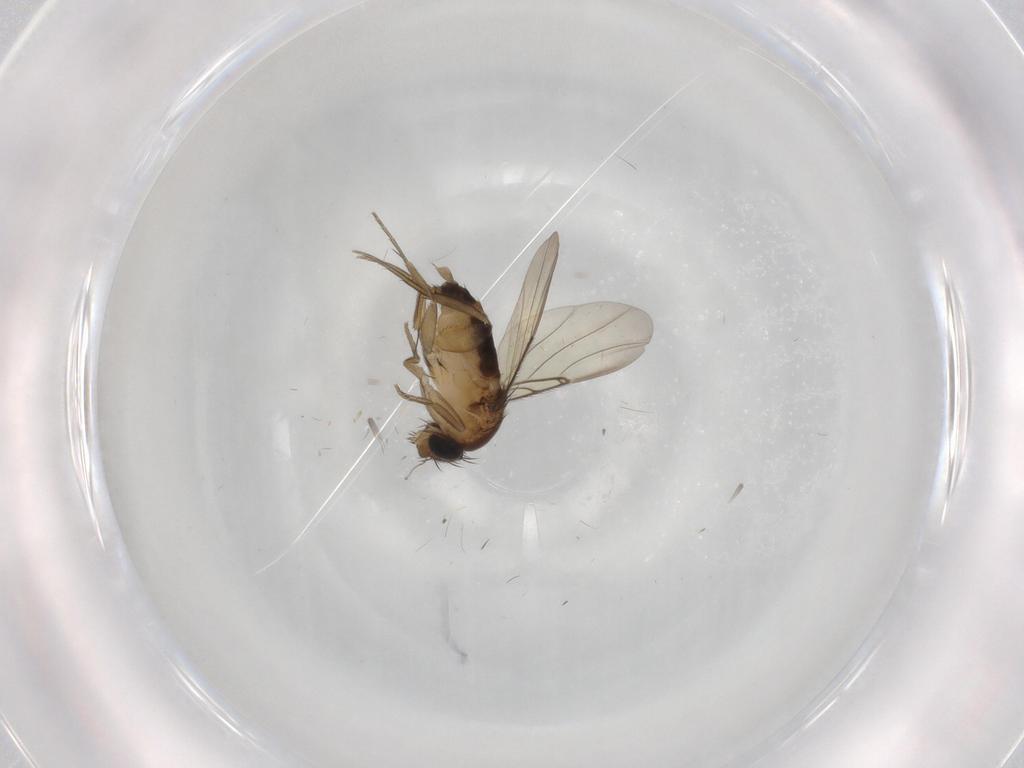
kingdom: Animalia
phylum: Arthropoda
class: Insecta
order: Diptera
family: Phoridae
